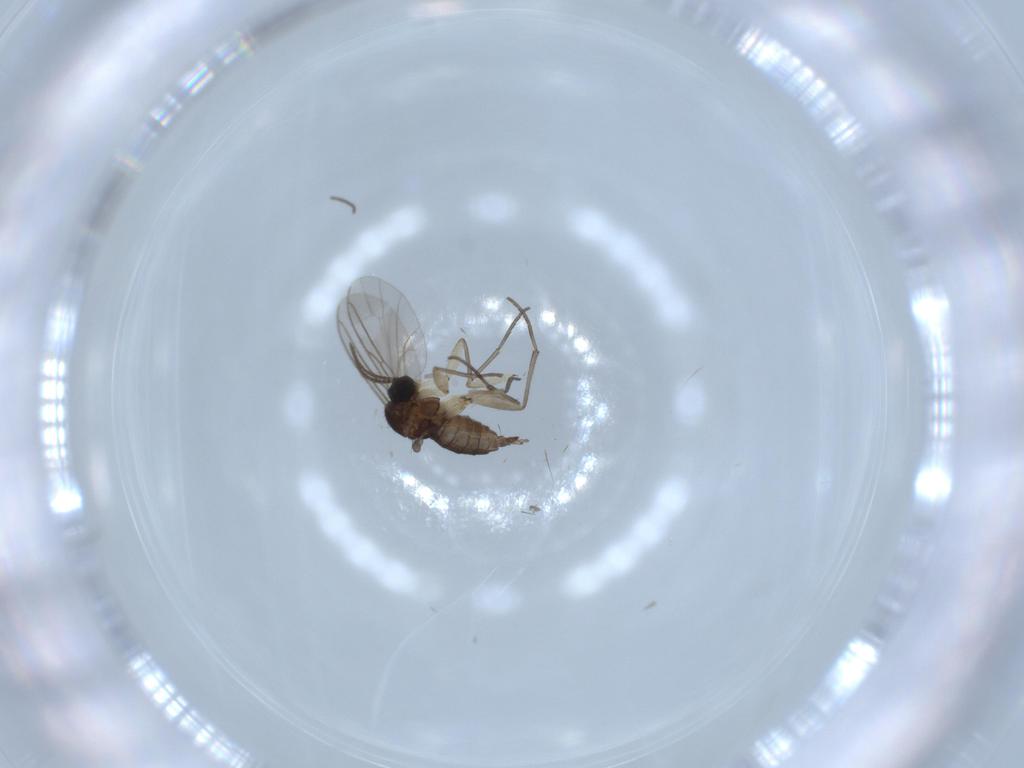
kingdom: Animalia
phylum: Arthropoda
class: Insecta
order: Diptera
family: Sciaridae
